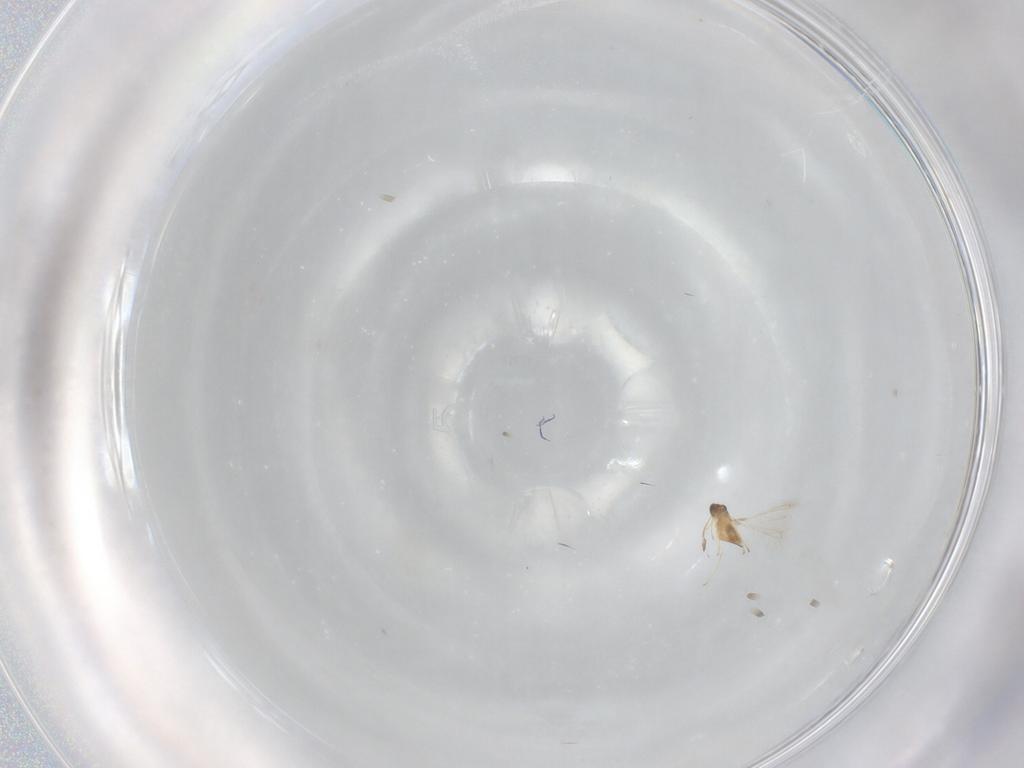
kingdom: Animalia
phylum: Arthropoda
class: Insecta
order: Hymenoptera
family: Mymaridae
